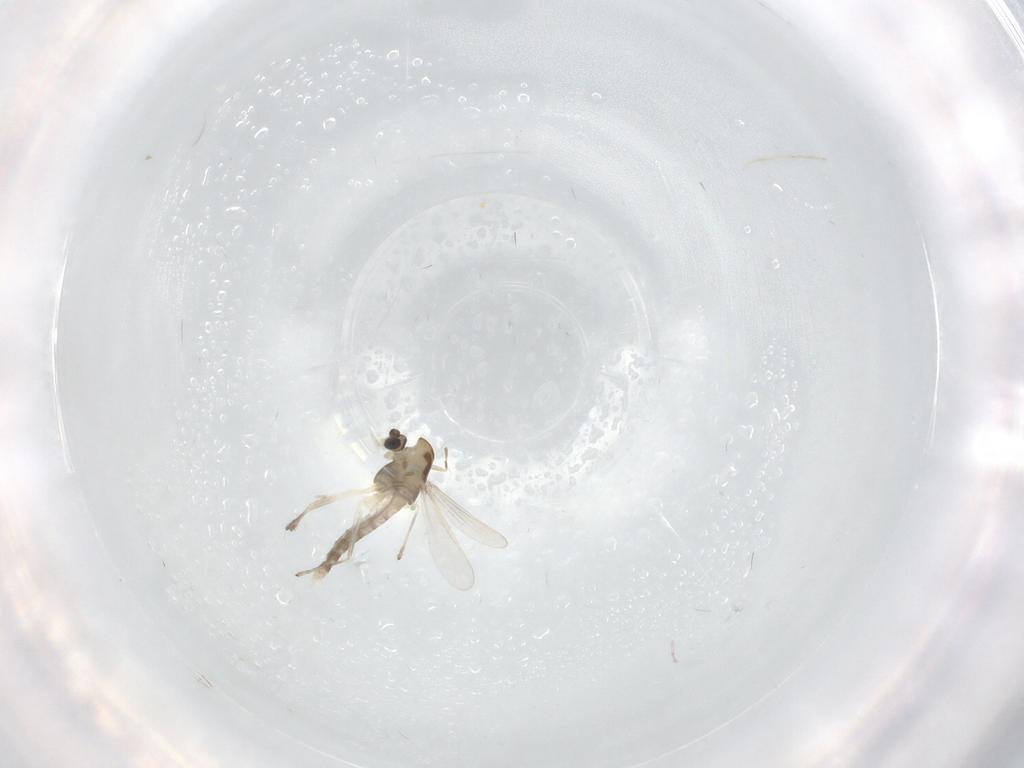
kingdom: Animalia
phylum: Arthropoda
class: Insecta
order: Diptera
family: Chironomidae
